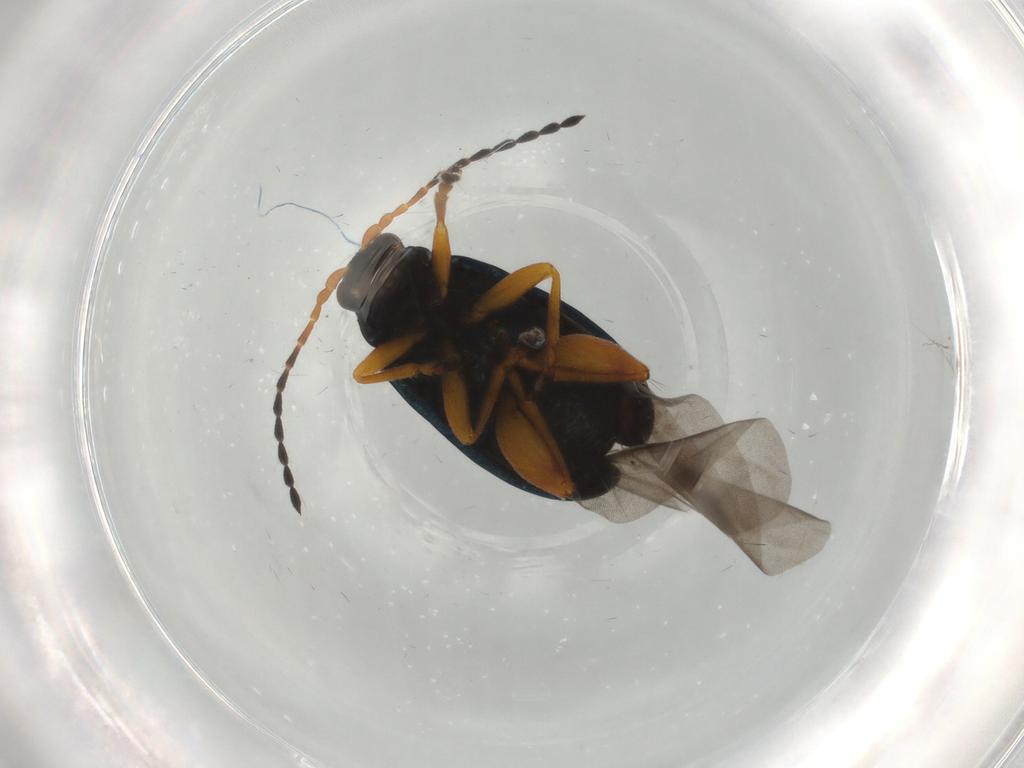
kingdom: Animalia
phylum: Arthropoda
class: Insecta
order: Coleoptera
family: Chrysomelidae
